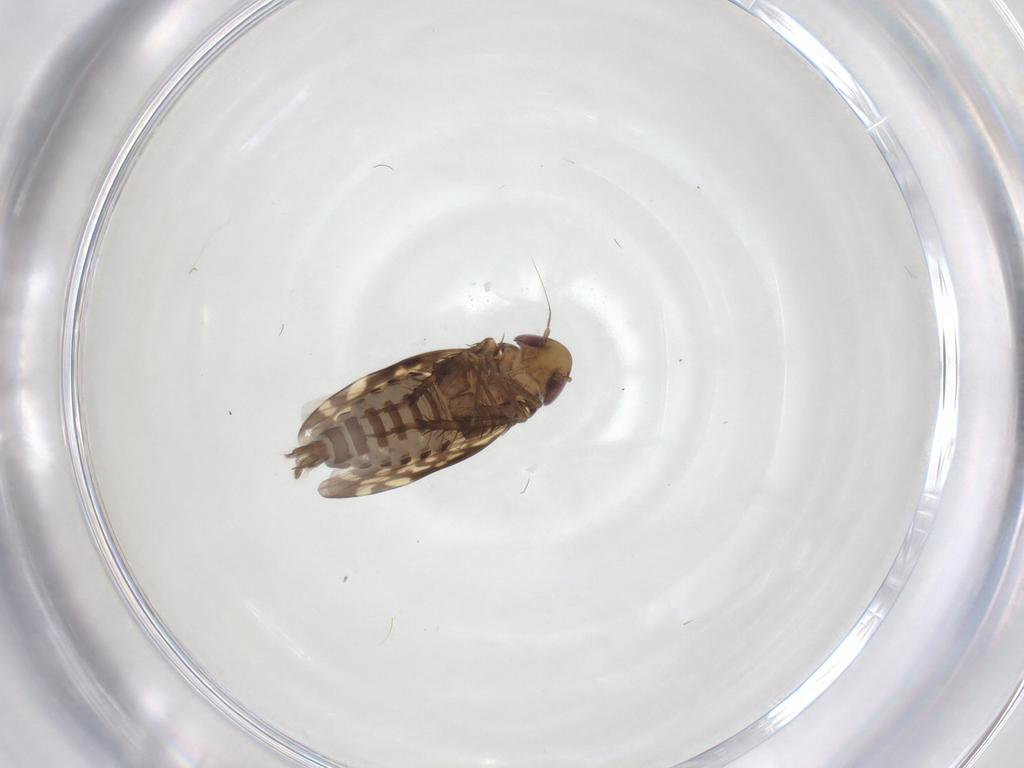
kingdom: Animalia
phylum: Arthropoda
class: Insecta
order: Hemiptera
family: Cicadellidae
